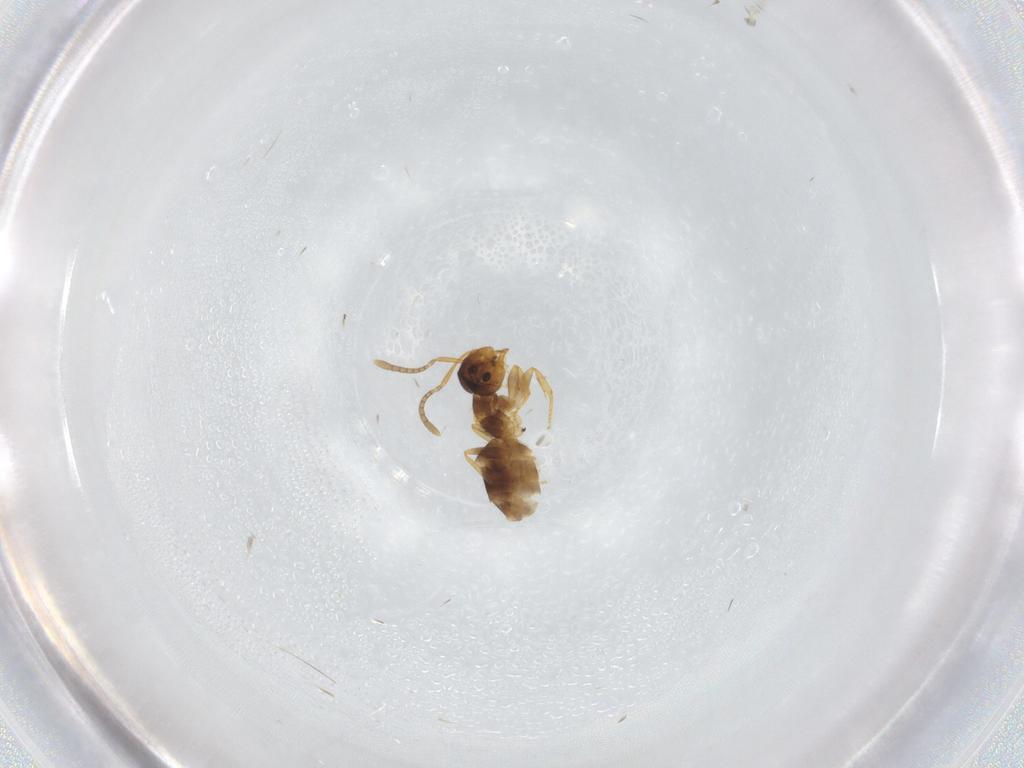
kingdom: Animalia
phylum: Arthropoda
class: Insecta
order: Hymenoptera
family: Formicidae
